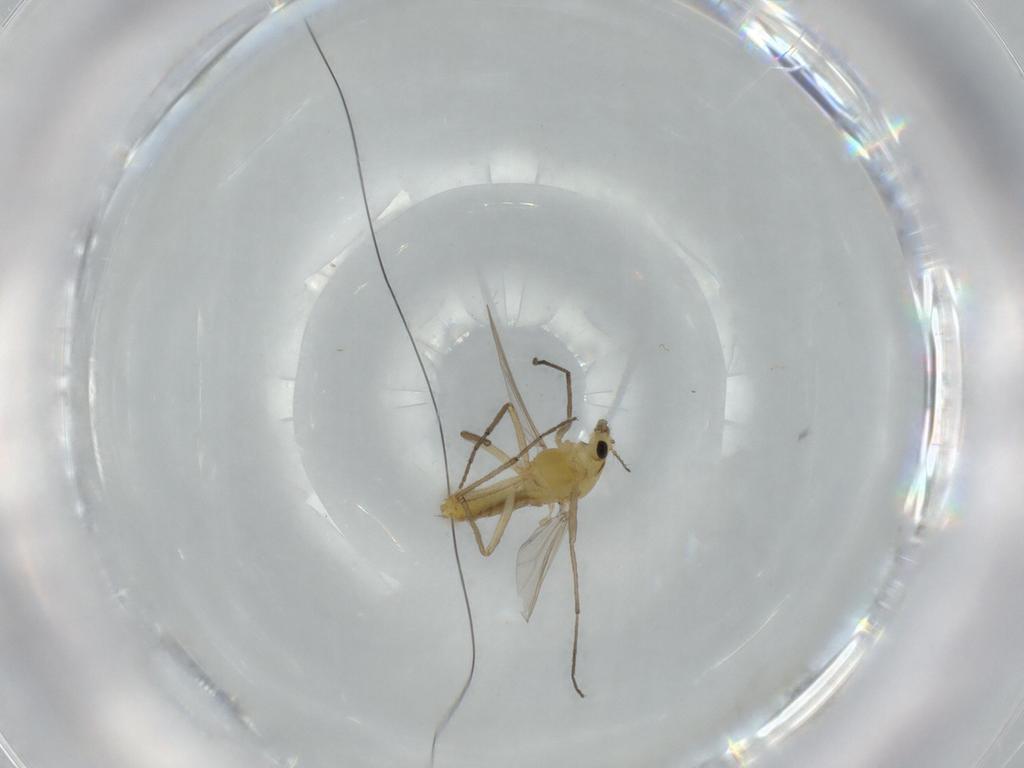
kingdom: Animalia
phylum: Arthropoda
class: Insecta
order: Diptera
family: Chironomidae
